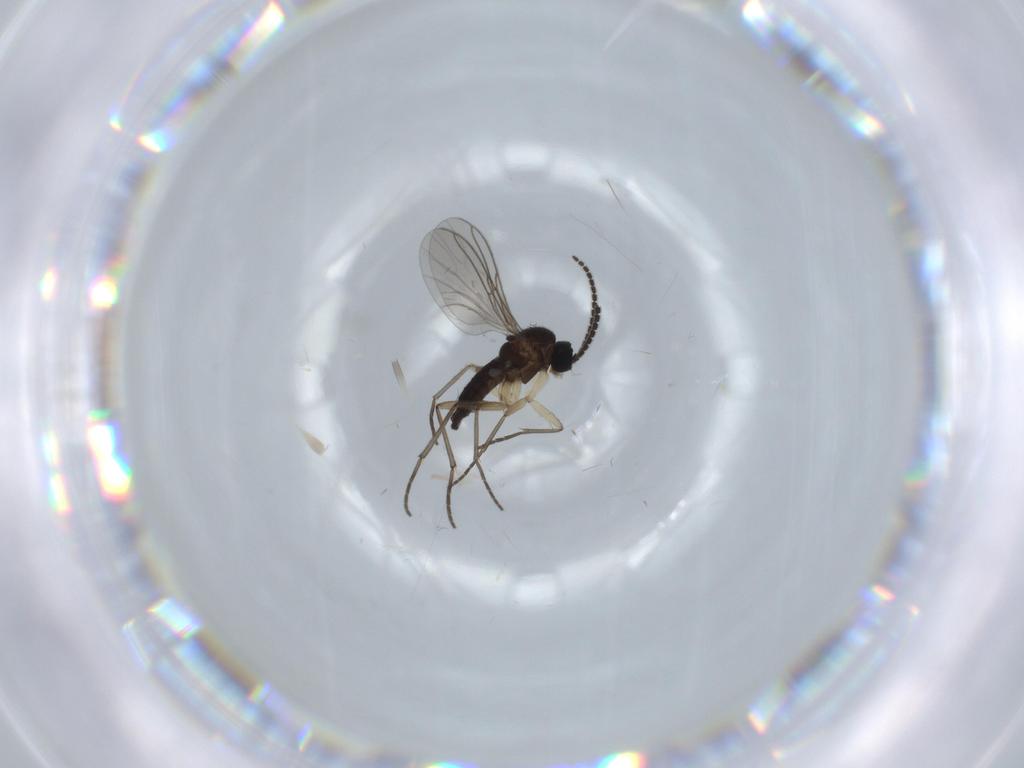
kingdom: Animalia
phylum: Arthropoda
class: Insecta
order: Diptera
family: Sciaridae
